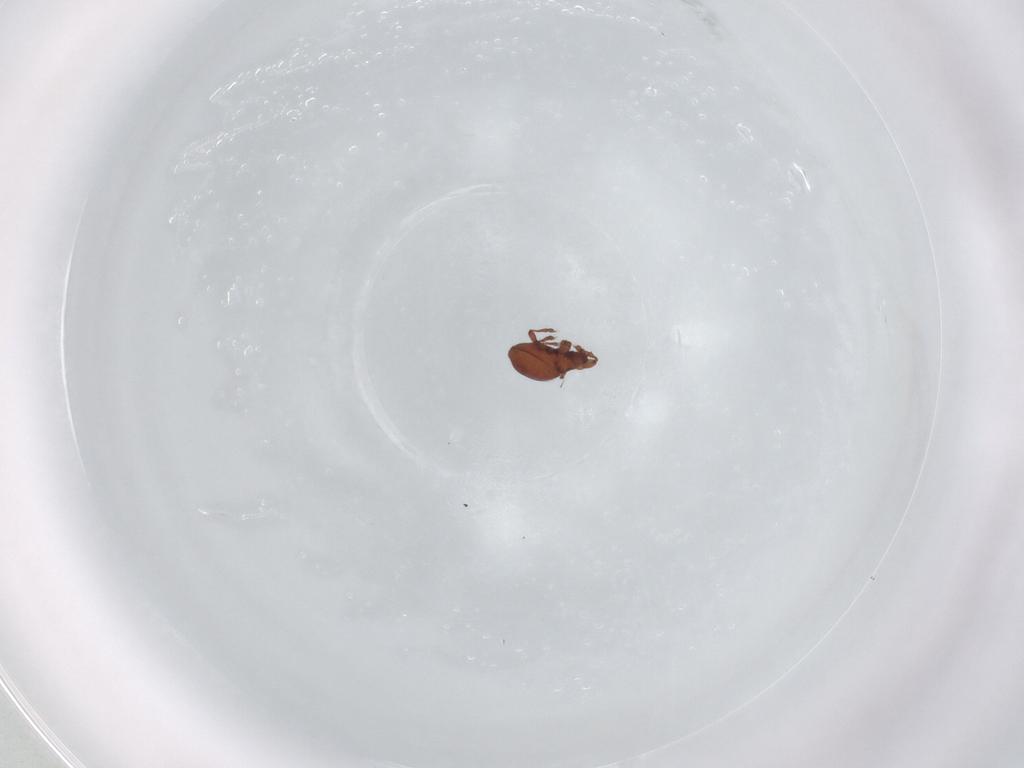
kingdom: Animalia
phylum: Arthropoda
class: Arachnida
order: Sarcoptiformes
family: Eremaeidae
